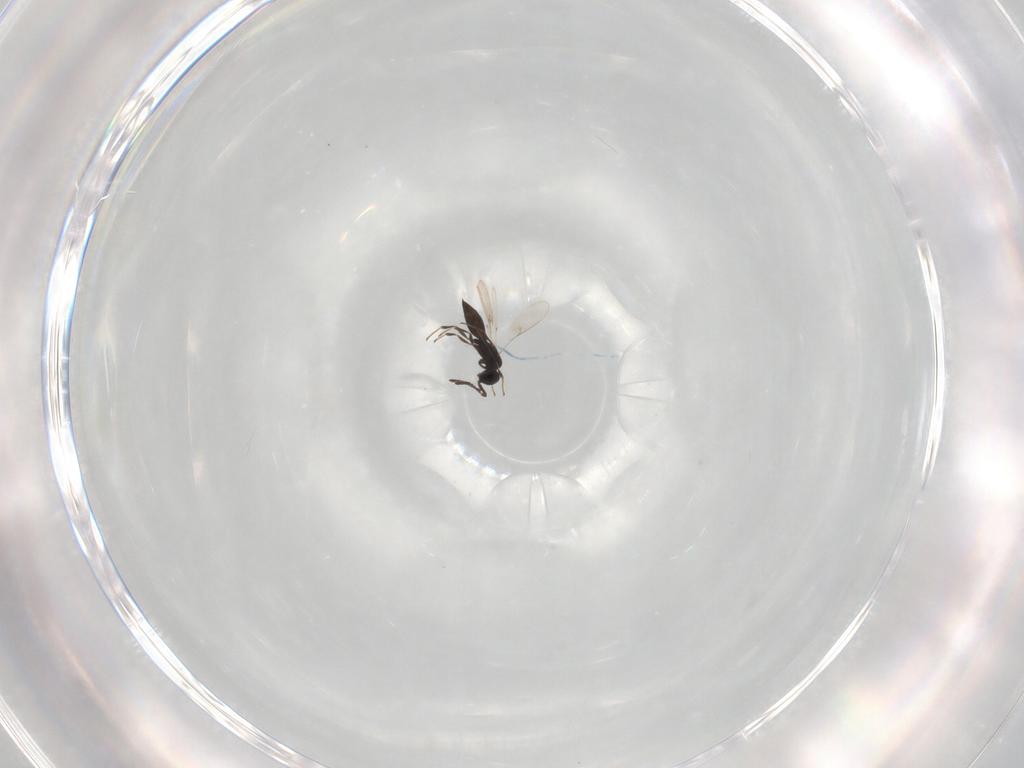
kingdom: Animalia
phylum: Arthropoda
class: Insecta
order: Hymenoptera
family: Scelionidae
